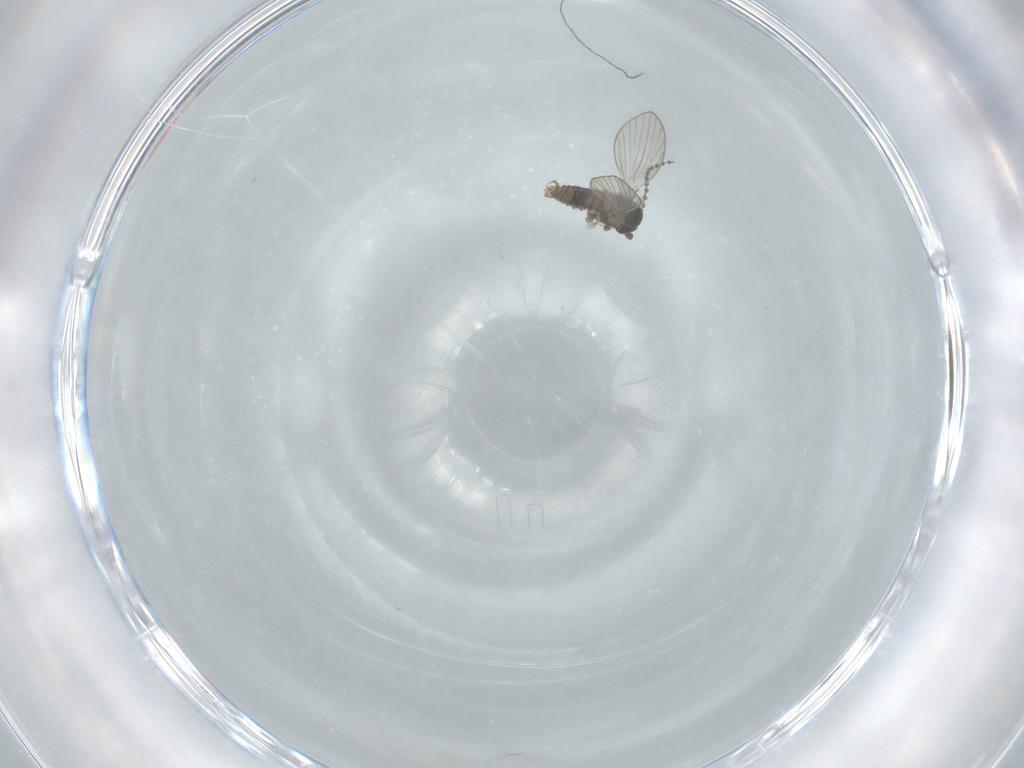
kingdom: Animalia
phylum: Arthropoda
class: Insecta
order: Diptera
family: Psychodidae
